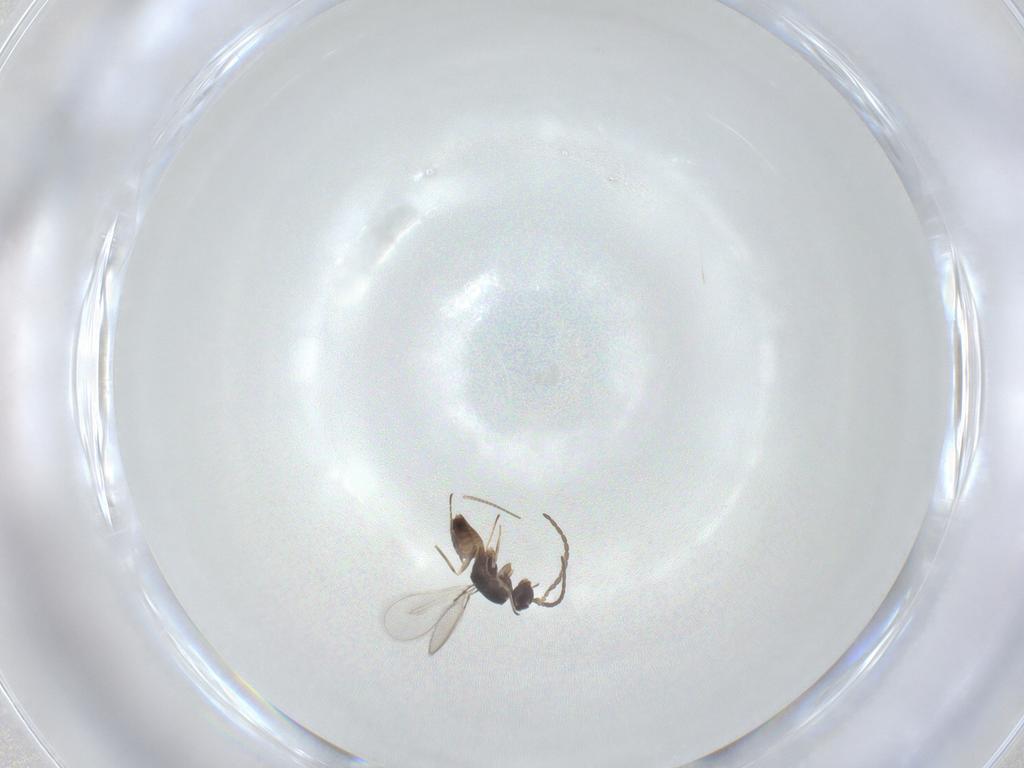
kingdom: Animalia
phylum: Arthropoda
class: Insecta
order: Hymenoptera
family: Mymaridae
